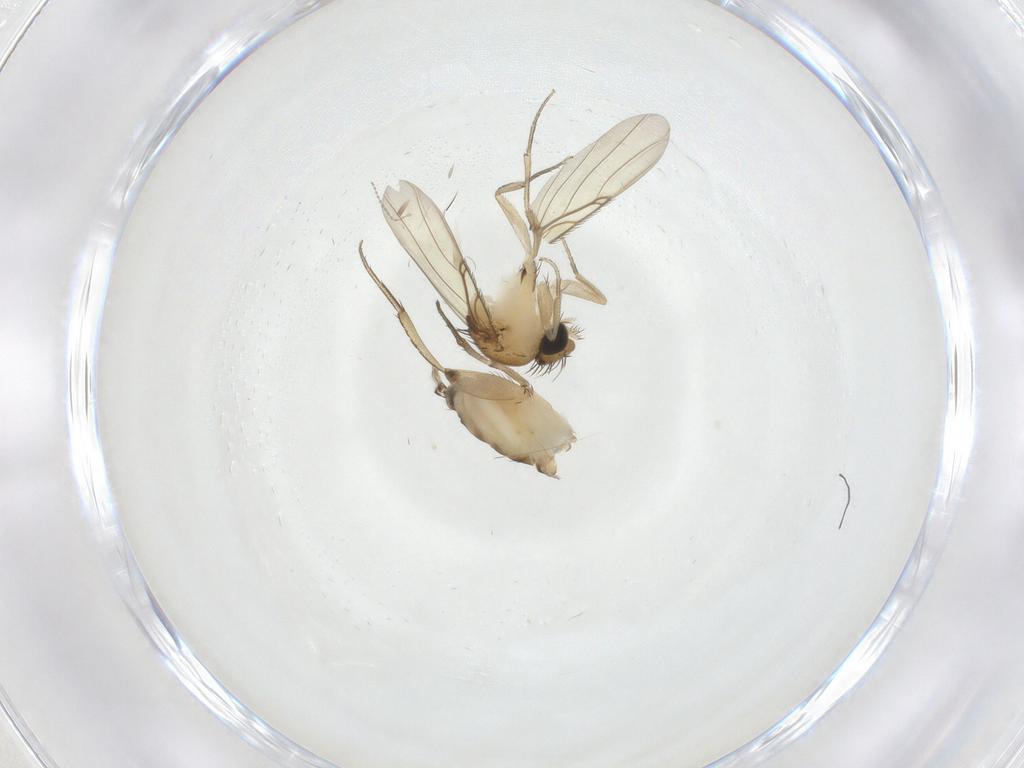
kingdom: Animalia
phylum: Arthropoda
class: Insecta
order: Diptera
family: Phoridae
